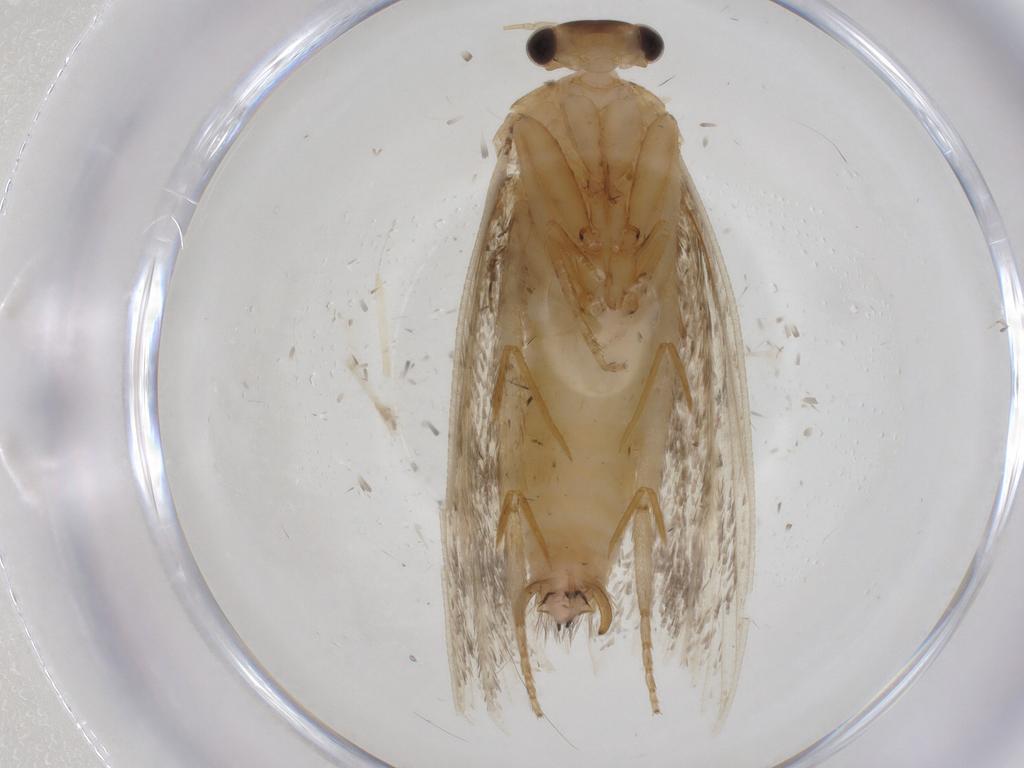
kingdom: Animalia
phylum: Arthropoda
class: Insecta
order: Lepidoptera
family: Tineidae
